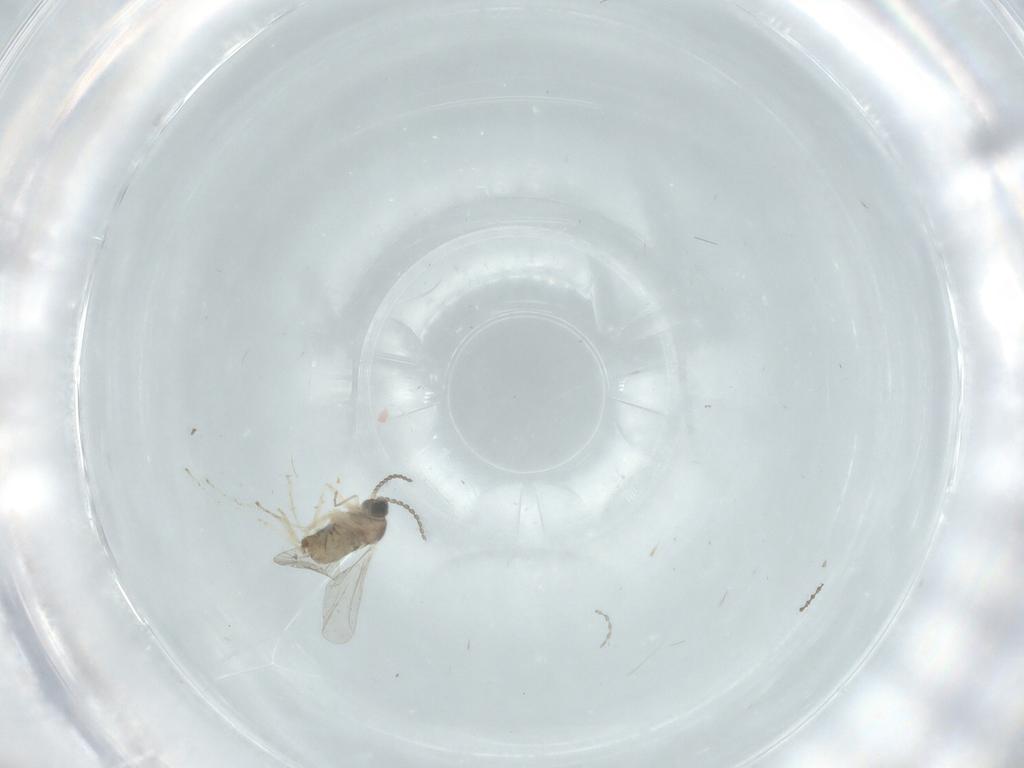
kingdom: Animalia
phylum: Arthropoda
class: Insecta
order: Diptera
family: Cecidomyiidae
